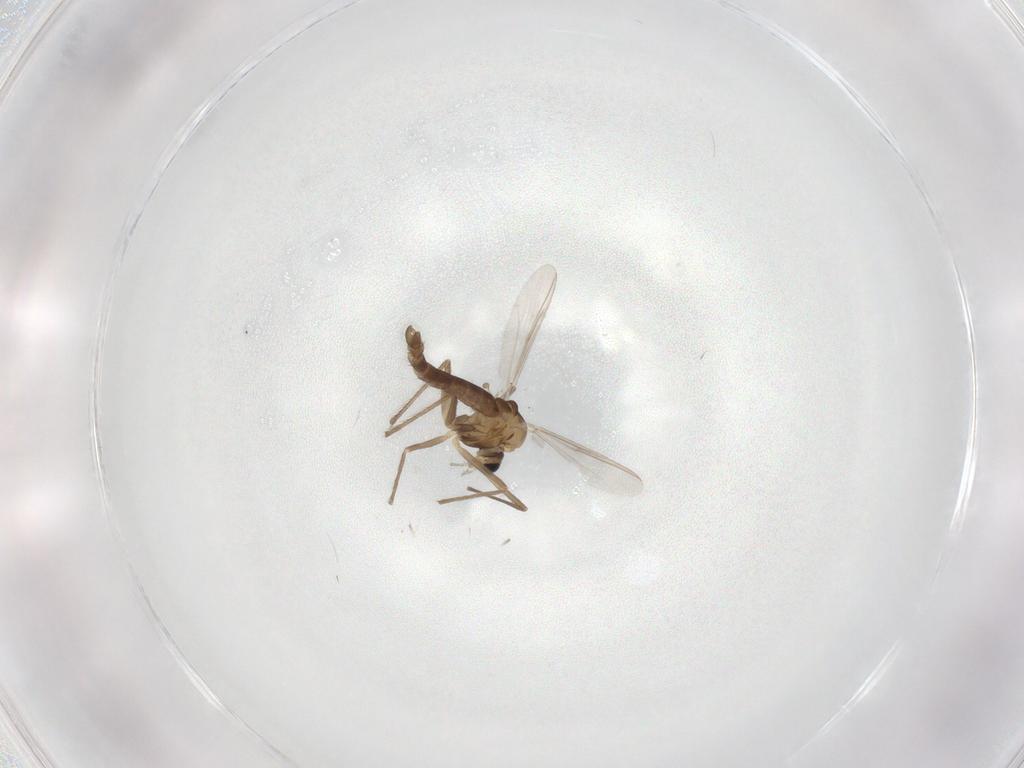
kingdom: Animalia
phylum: Arthropoda
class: Insecta
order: Diptera
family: Chironomidae
